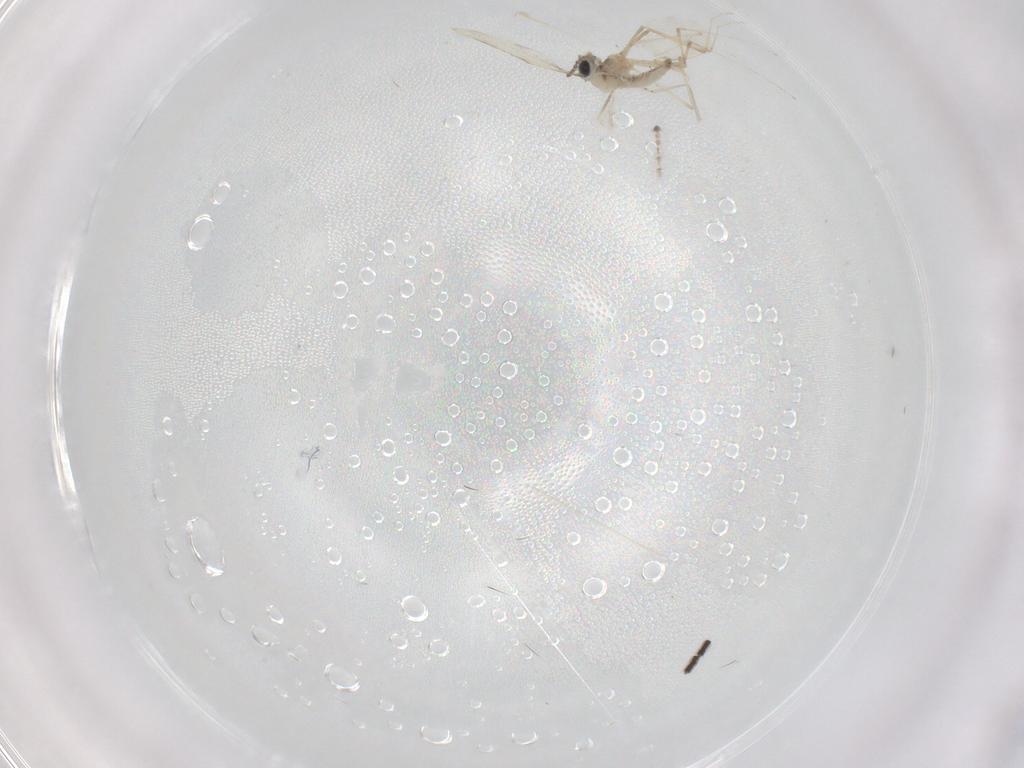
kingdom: Animalia
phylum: Arthropoda
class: Insecta
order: Diptera
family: Cecidomyiidae
